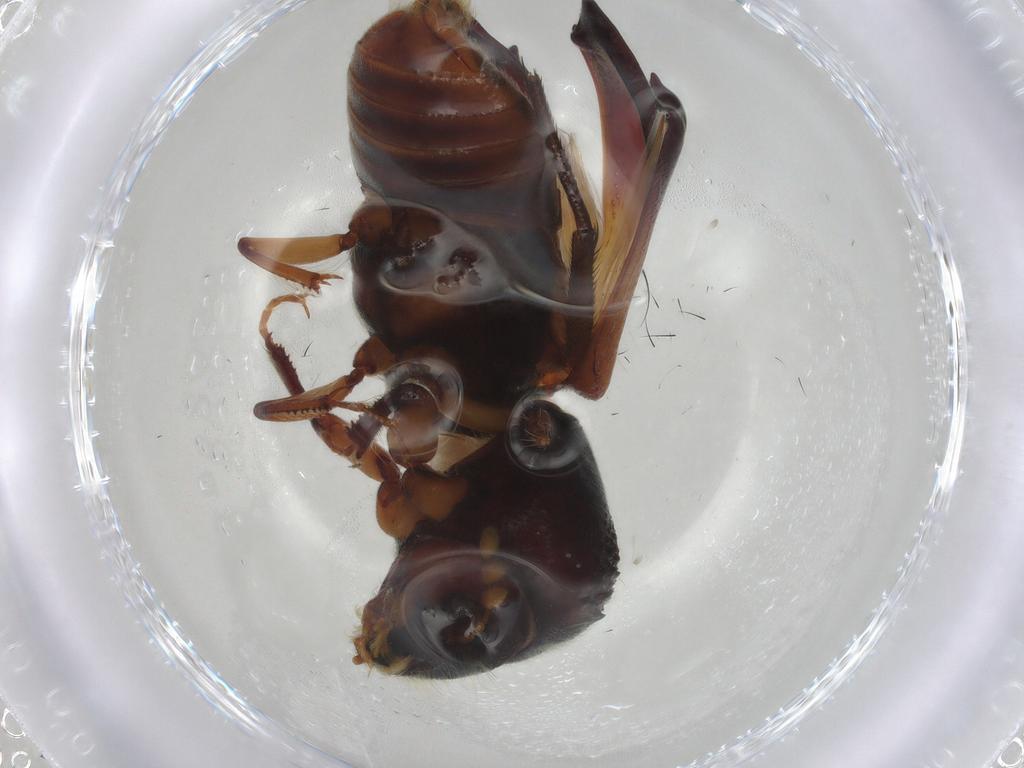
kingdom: Animalia
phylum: Arthropoda
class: Insecta
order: Coleoptera
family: Bostrichidae
